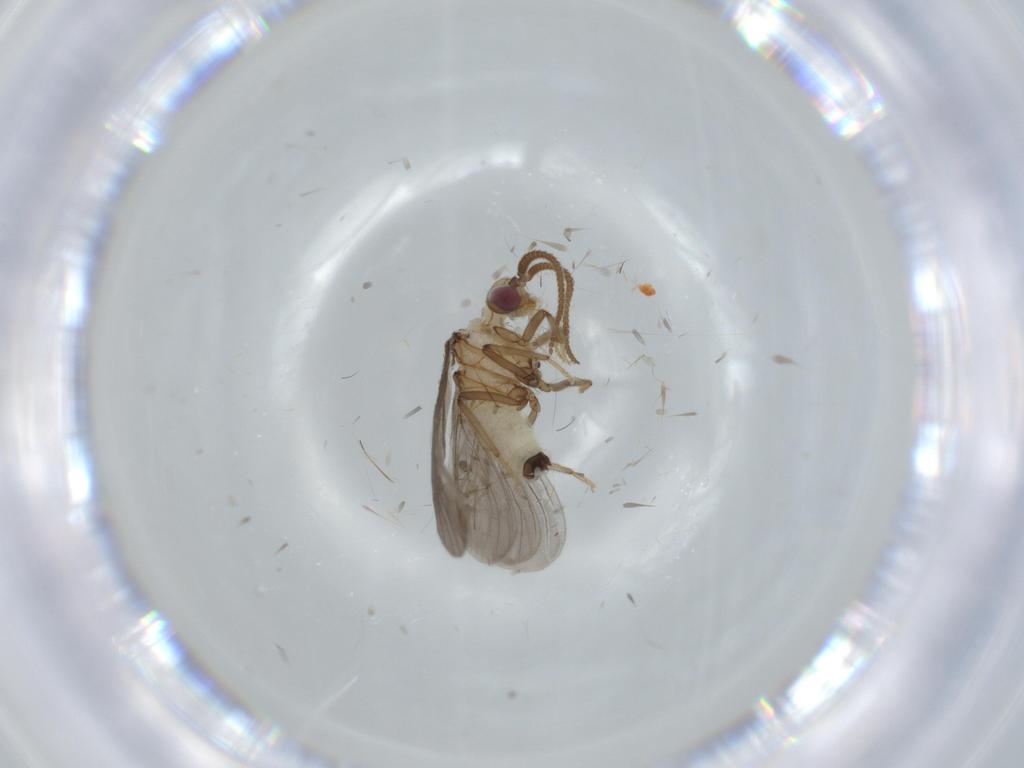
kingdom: Animalia
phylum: Arthropoda
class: Insecta
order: Neuroptera
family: Coniopterygidae
